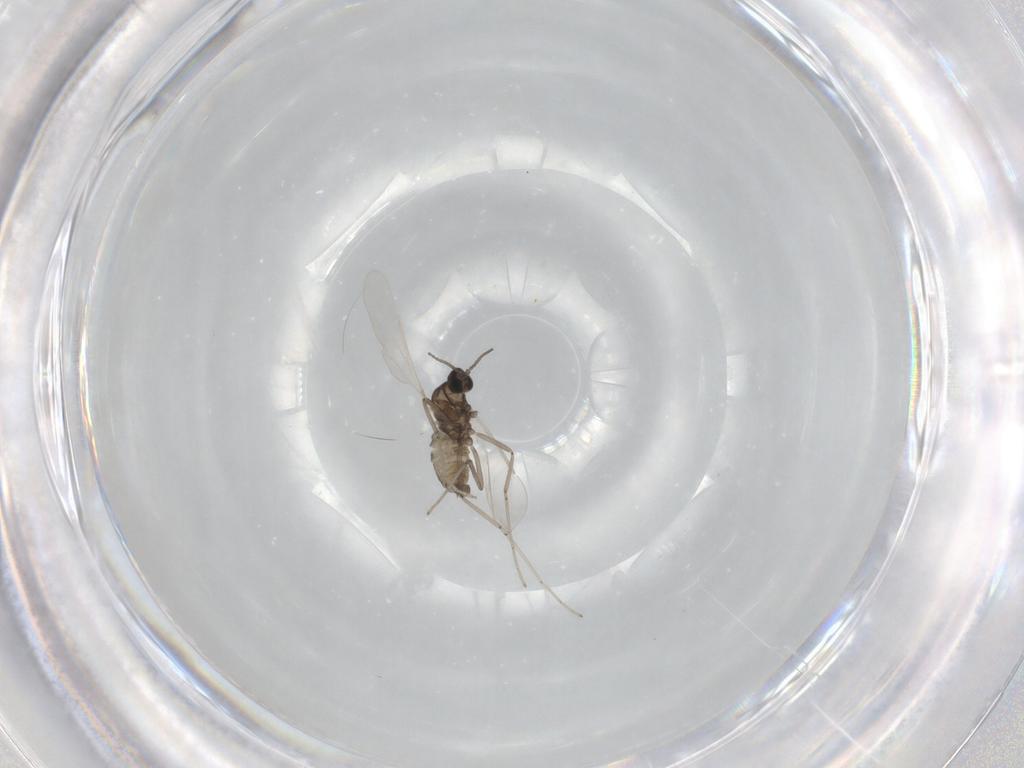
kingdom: Animalia
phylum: Arthropoda
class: Insecta
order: Diptera
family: Cecidomyiidae
